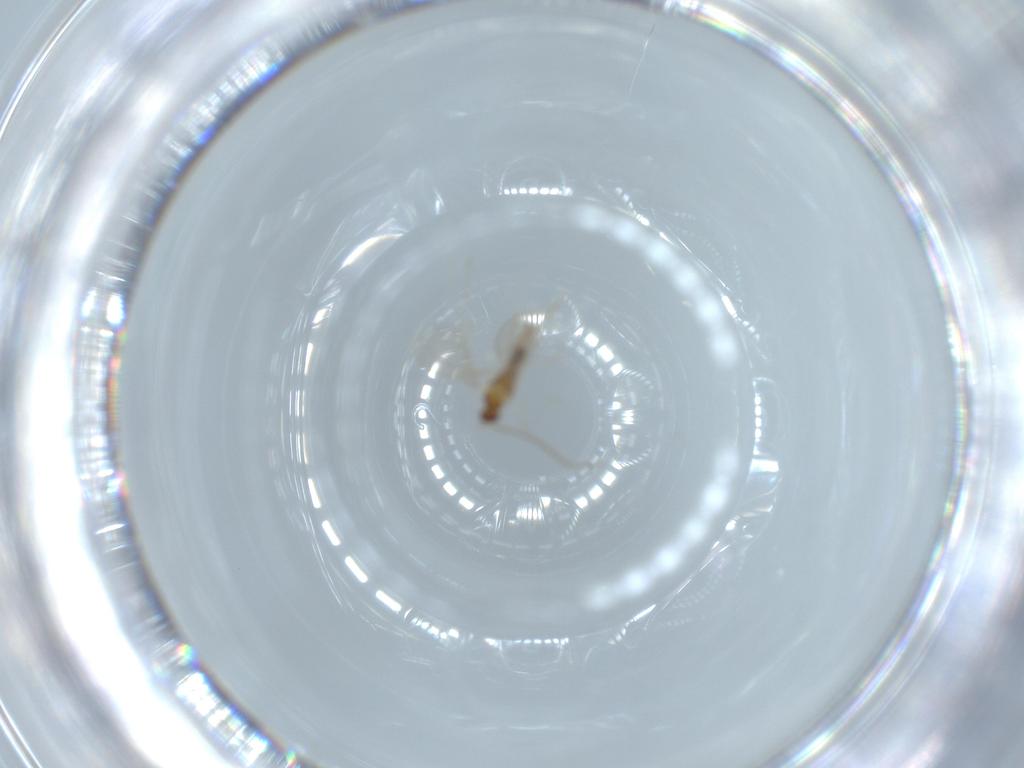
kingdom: Animalia
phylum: Arthropoda
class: Insecta
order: Diptera
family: Cecidomyiidae
